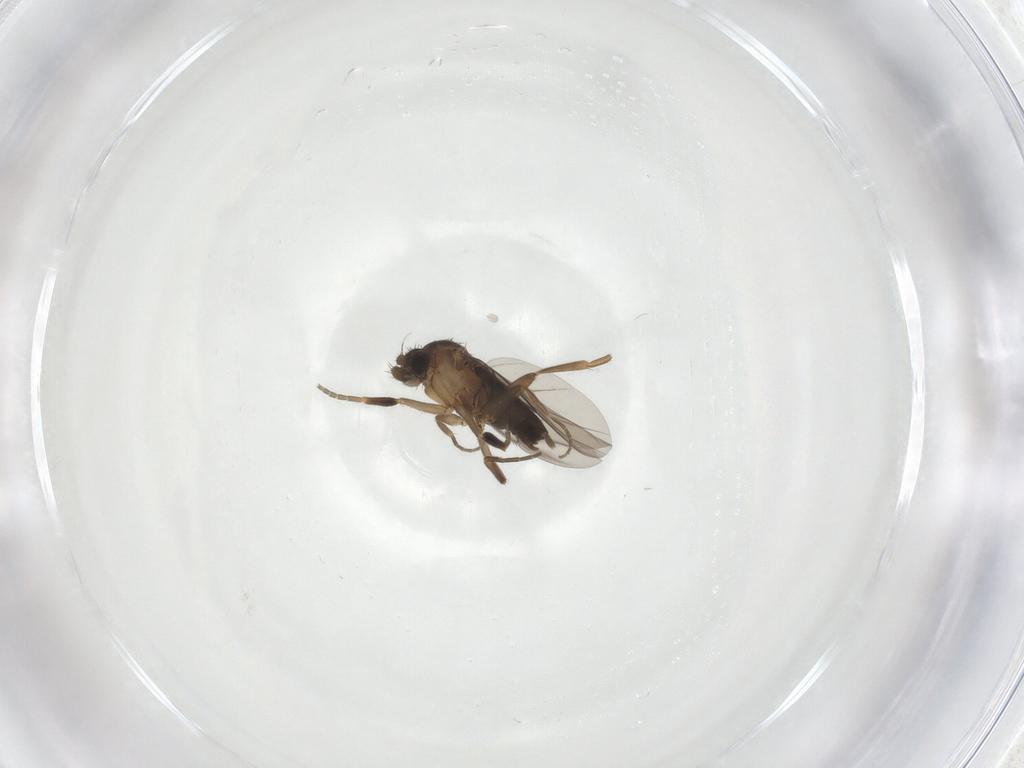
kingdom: Animalia
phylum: Arthropoda
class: Insecta
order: Diptera
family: Phoridae
